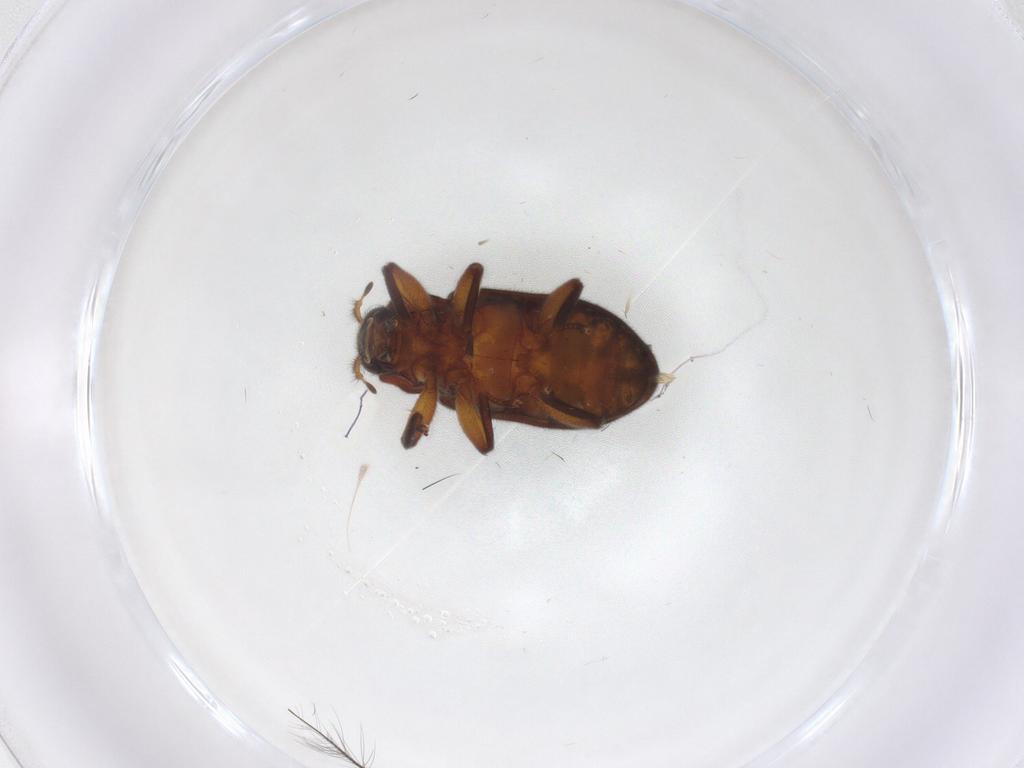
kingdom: Animalia
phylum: Arthropoda
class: Insecta
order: Coleoptera
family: Elmidae
